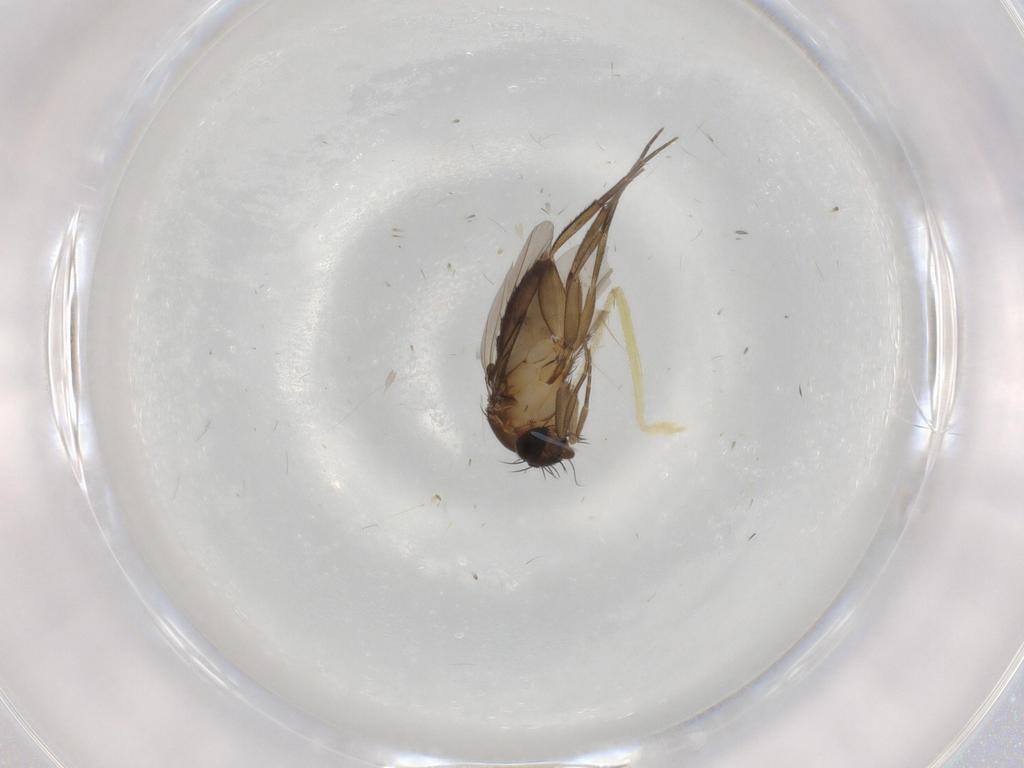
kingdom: Animalia
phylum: Arthropoda
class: Insecta
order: Diptera
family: Phoridae
